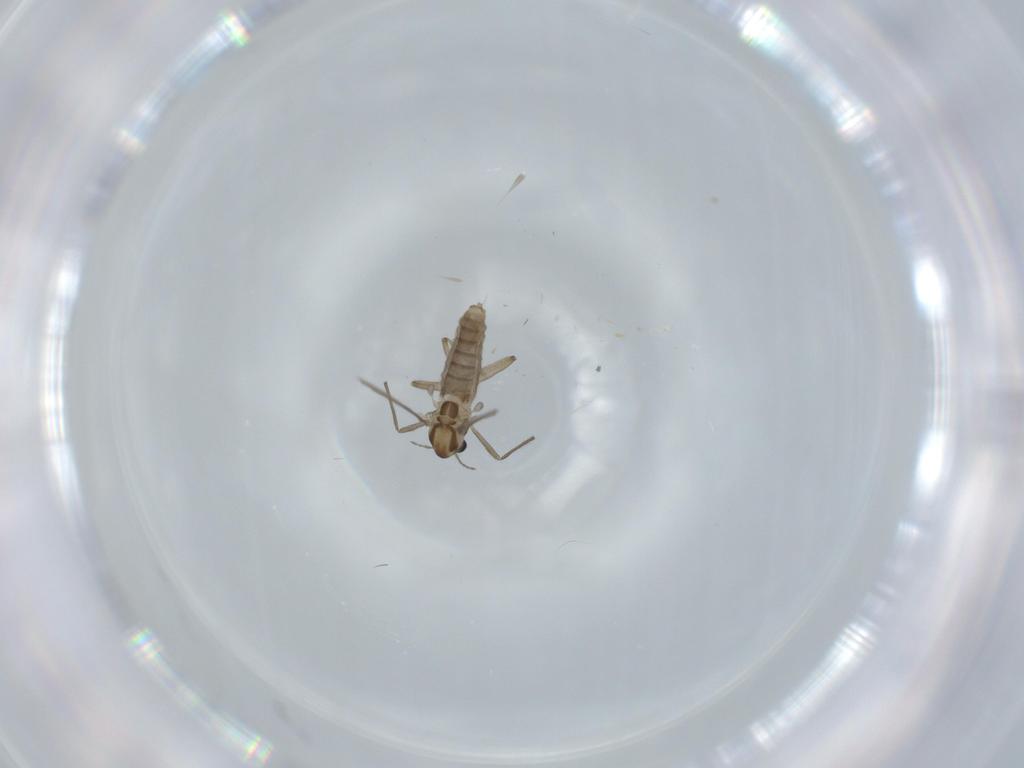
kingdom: Animalia
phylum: Arthropoda
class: Insecta
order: Diptera
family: Chironomidae
